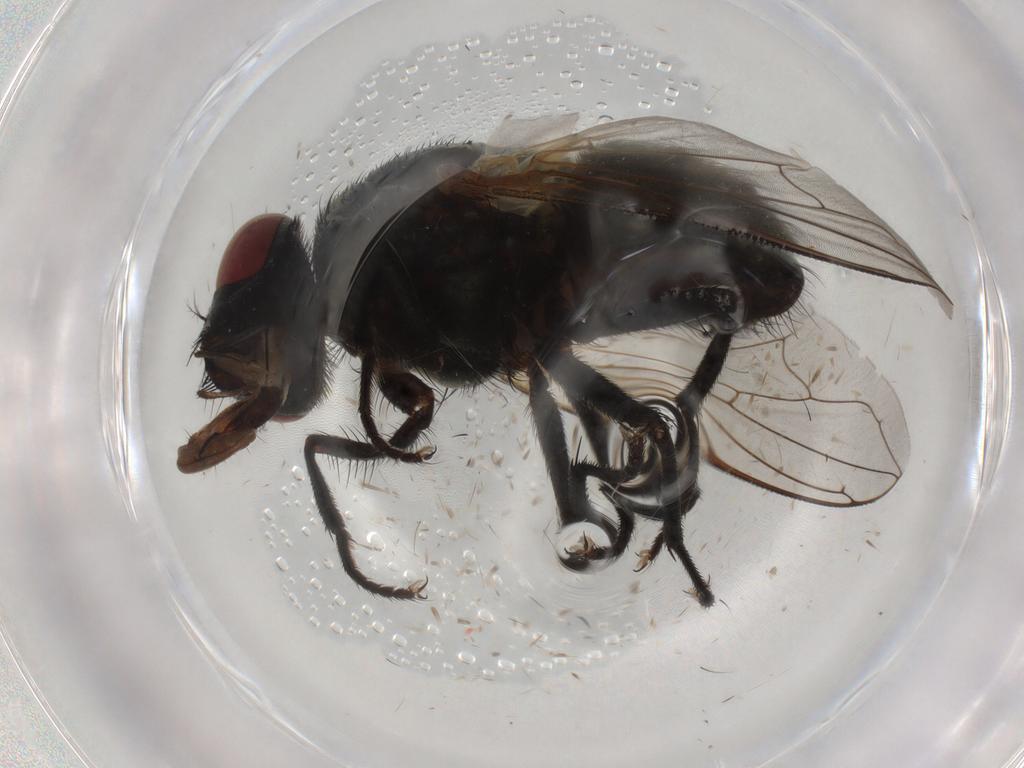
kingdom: Animalia
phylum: Arthropoda
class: Insecta
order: Diptera
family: Muscidae
